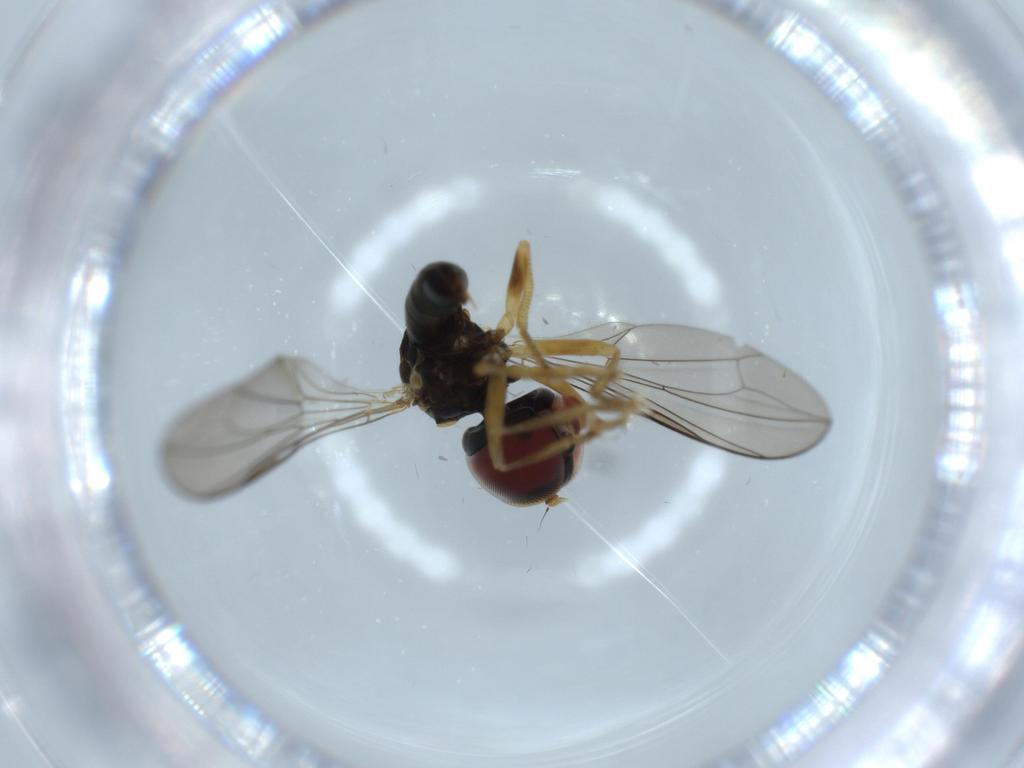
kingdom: Animalia
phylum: Arthropoda
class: Insecta
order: Diptera
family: Pipunculidae
